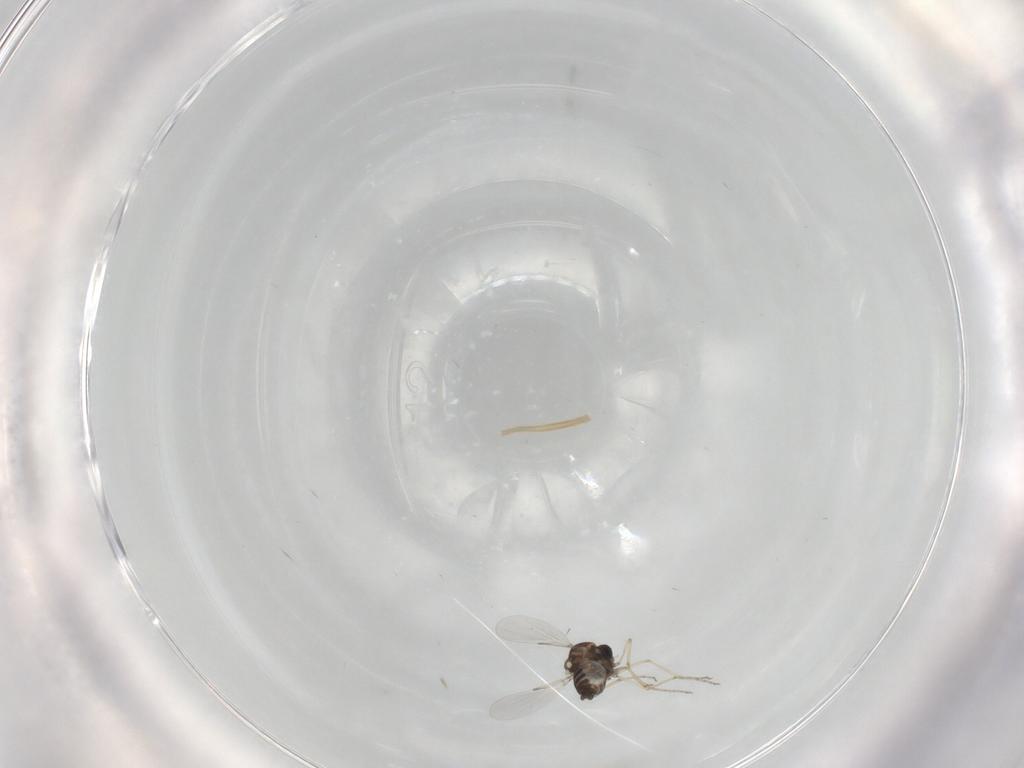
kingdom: Animalia
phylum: Arthropoda
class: Insecta
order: Diptera
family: Ceratopogonidae
